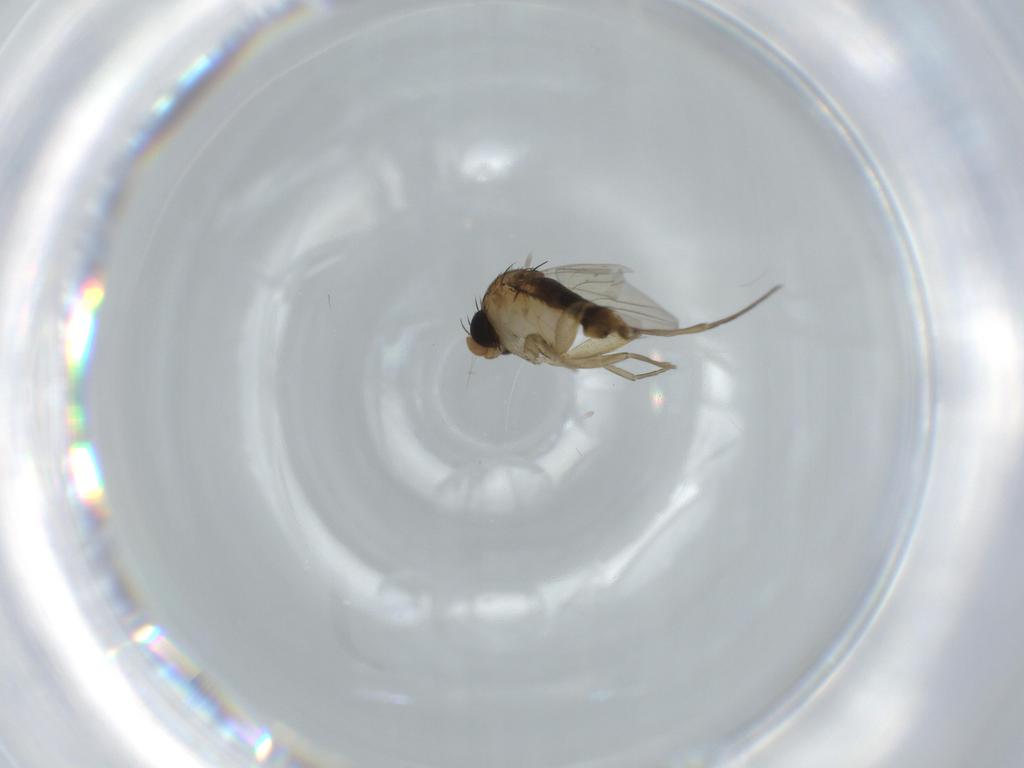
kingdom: Animalia
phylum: Arthropoda
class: Insecta
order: Diptera
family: Phoridae
